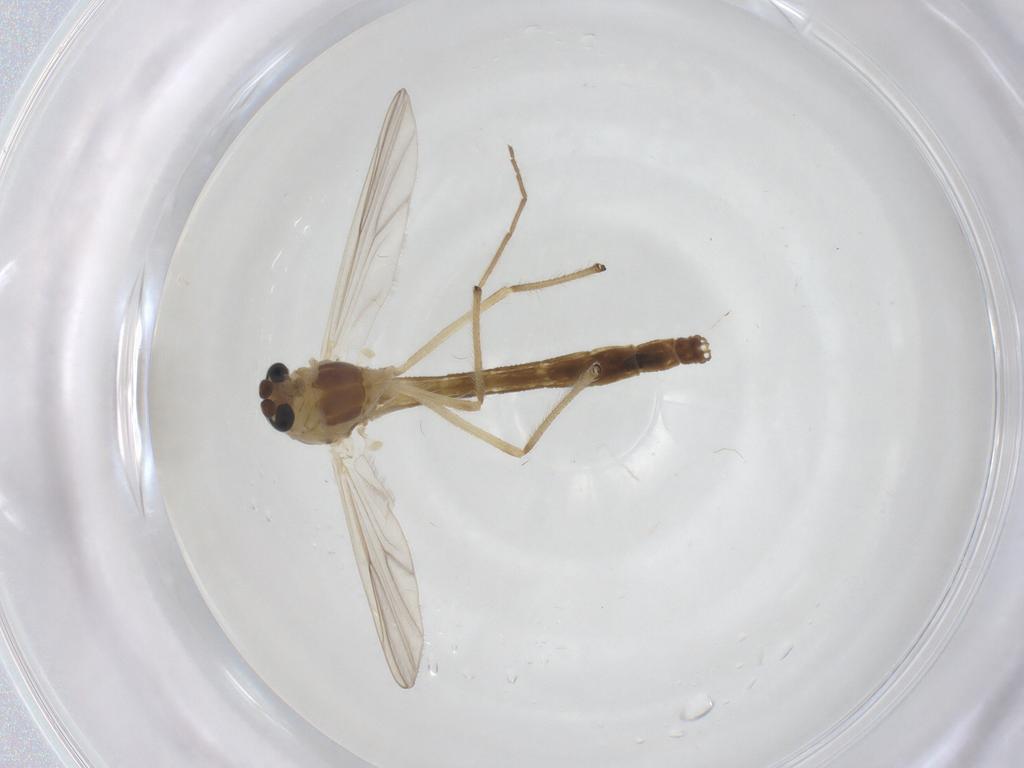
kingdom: Animalia
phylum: Arthropoda
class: Insecta
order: Diptera
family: Chironomidae
